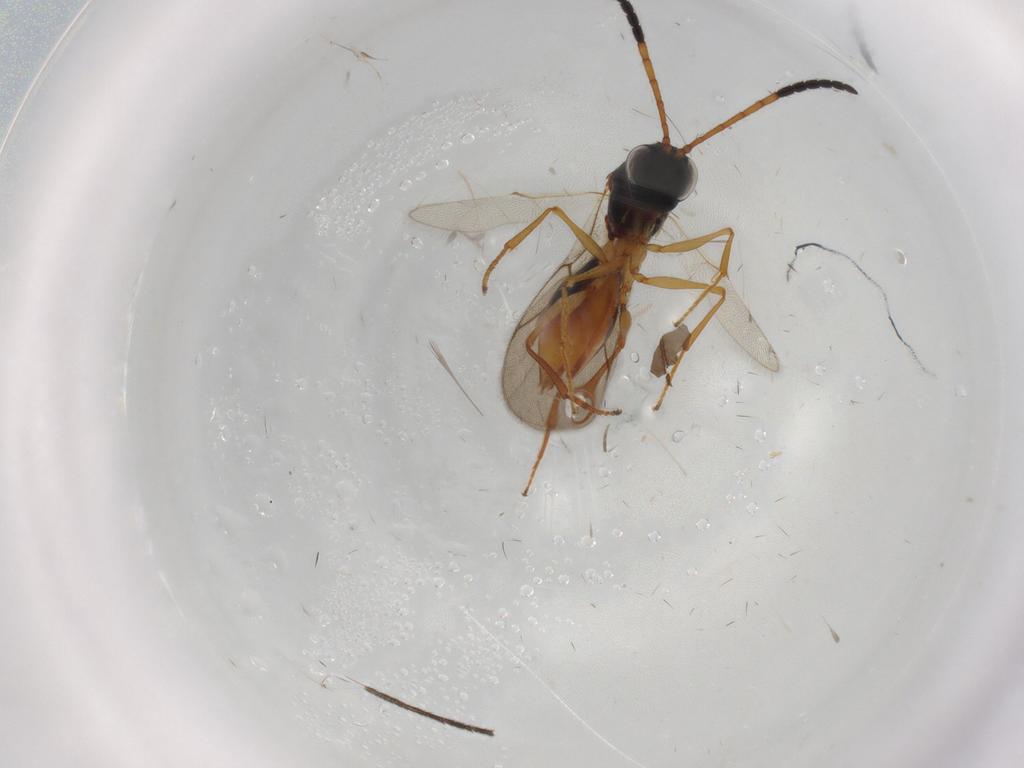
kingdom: Animalia
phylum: Arthropoda
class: Insecta
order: Hymenoptera
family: Figitidae
